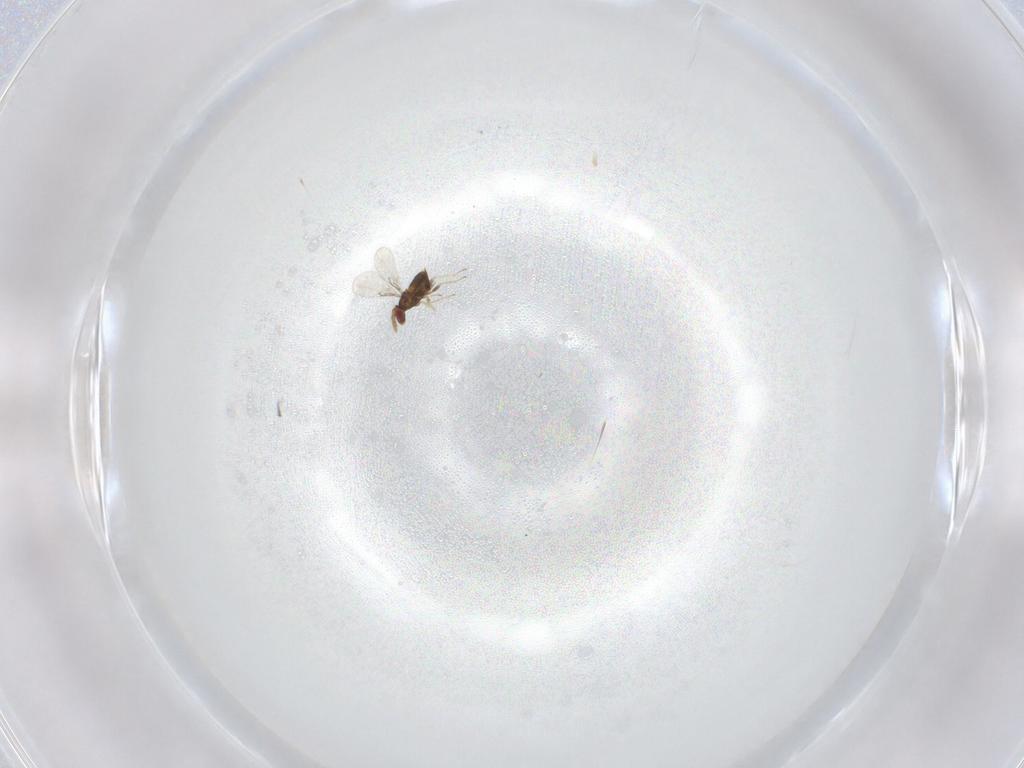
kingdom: Animalia
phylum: Arthropoda
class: Insecta
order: Hymenoptera
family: Trichogrammatidae
